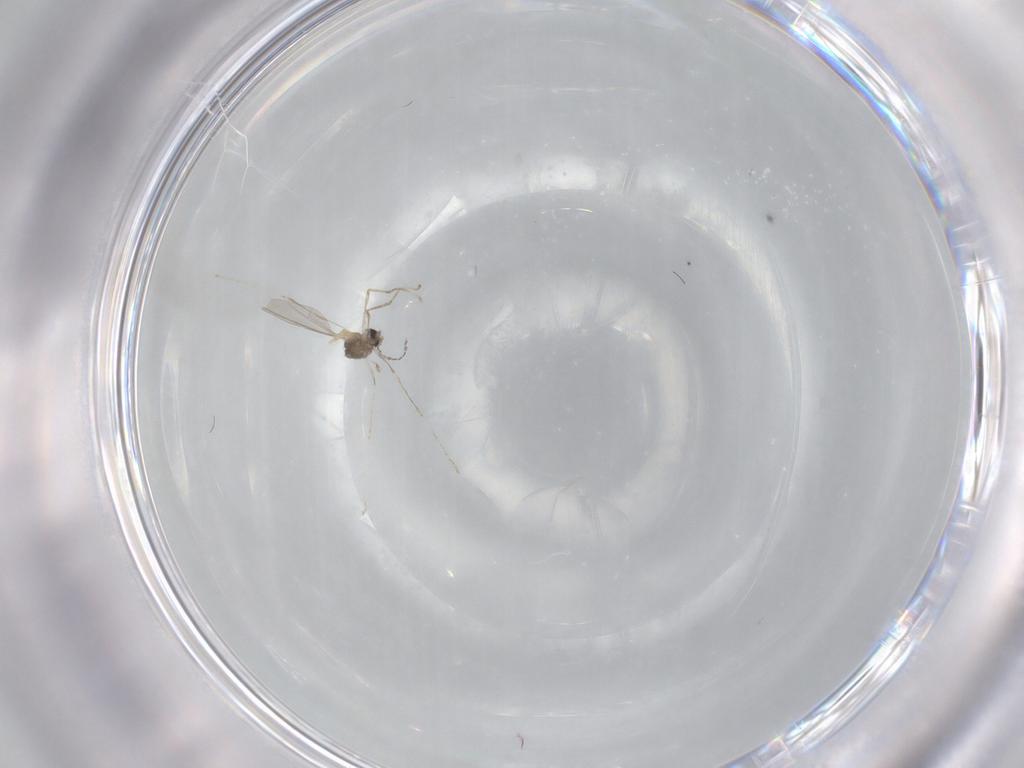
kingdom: Animalia
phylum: Arthropoda
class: Insecta
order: Diptera
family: Cecidomyiidae
